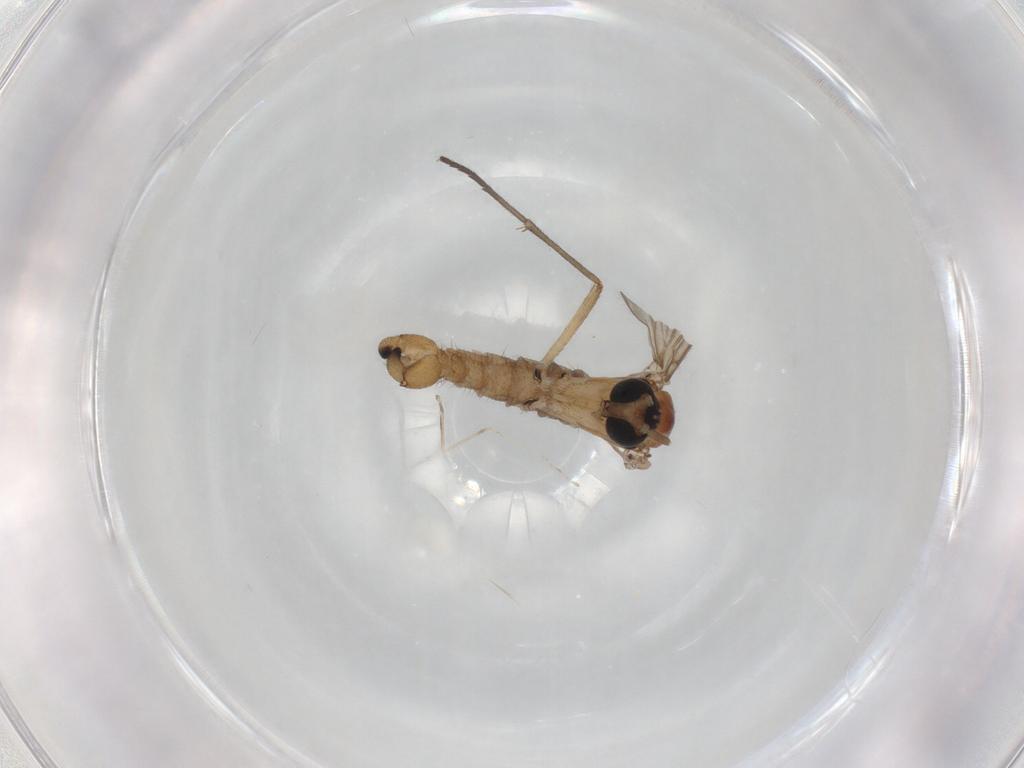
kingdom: Animalia
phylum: Arthropoda
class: Insecta
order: Diptera
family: Sciaridae
